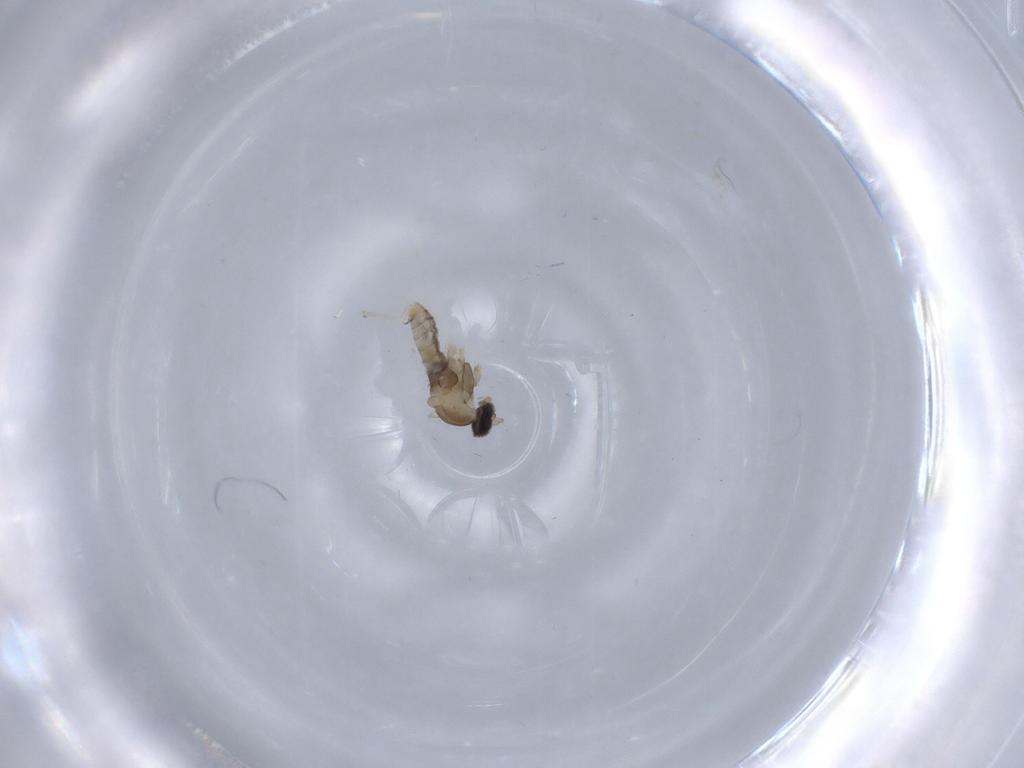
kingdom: Animalia
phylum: Arthropoda
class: Insecta
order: Diptera
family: Cecidomyiidae
